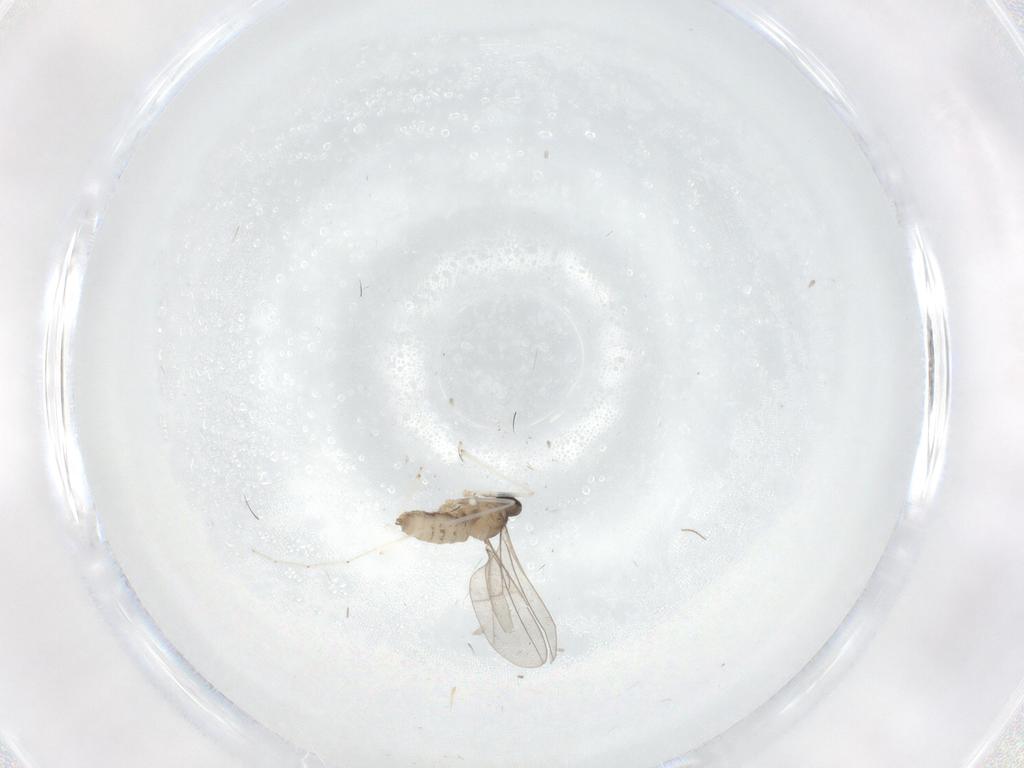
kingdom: Animalia
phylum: Arthropoda
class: Insecta
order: Diptera
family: Cecidomyiidae
